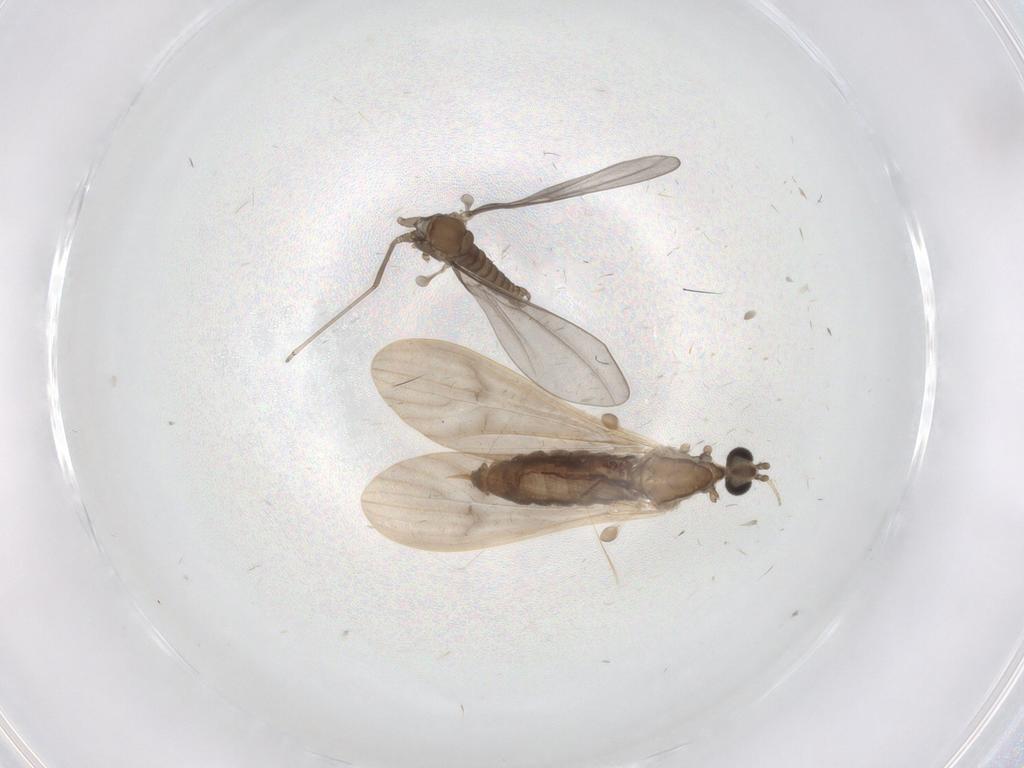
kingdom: Animalia
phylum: Arthropoda
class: Insecta
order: Diptera
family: Cecidomyiidae
